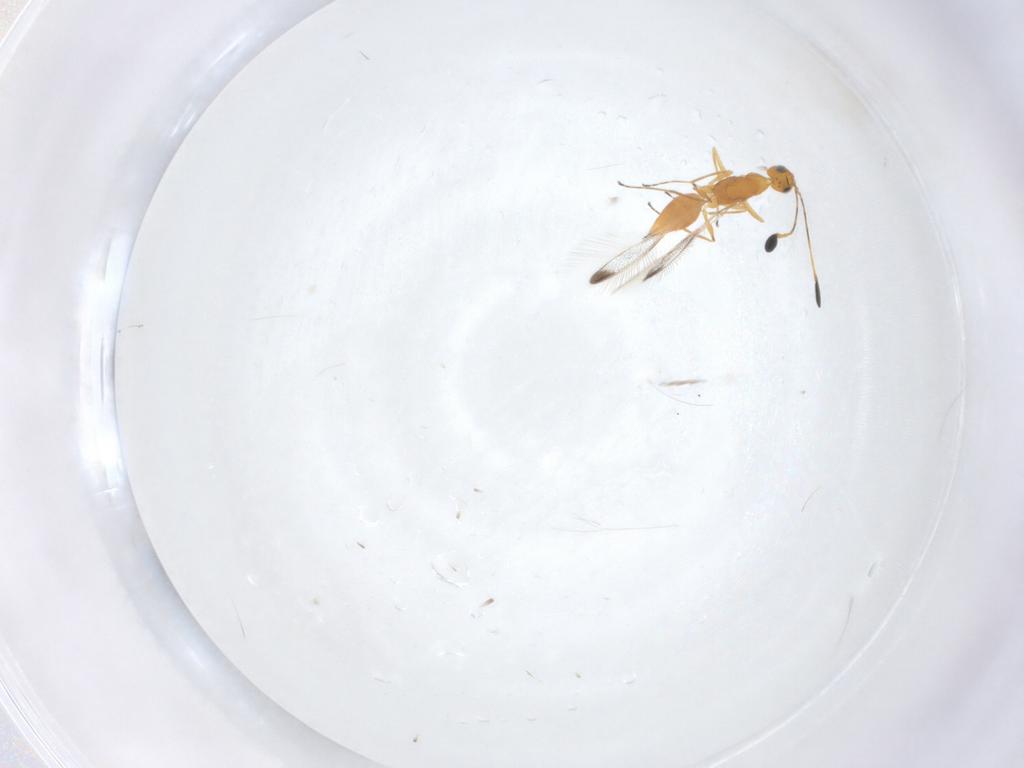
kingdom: Animalia
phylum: Arthropoda
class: Insecta
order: Hymenoptera
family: Mymaridae
